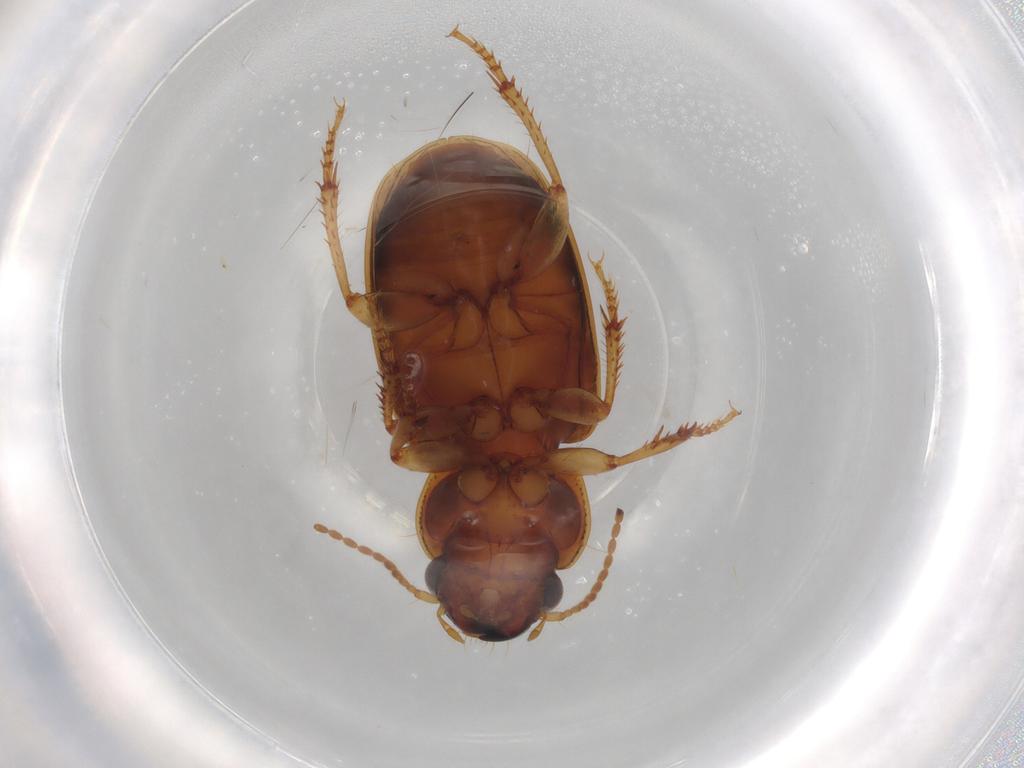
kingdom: Animalia
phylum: Arthropoda
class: Insecta
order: Coleoptera
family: Carabidae
